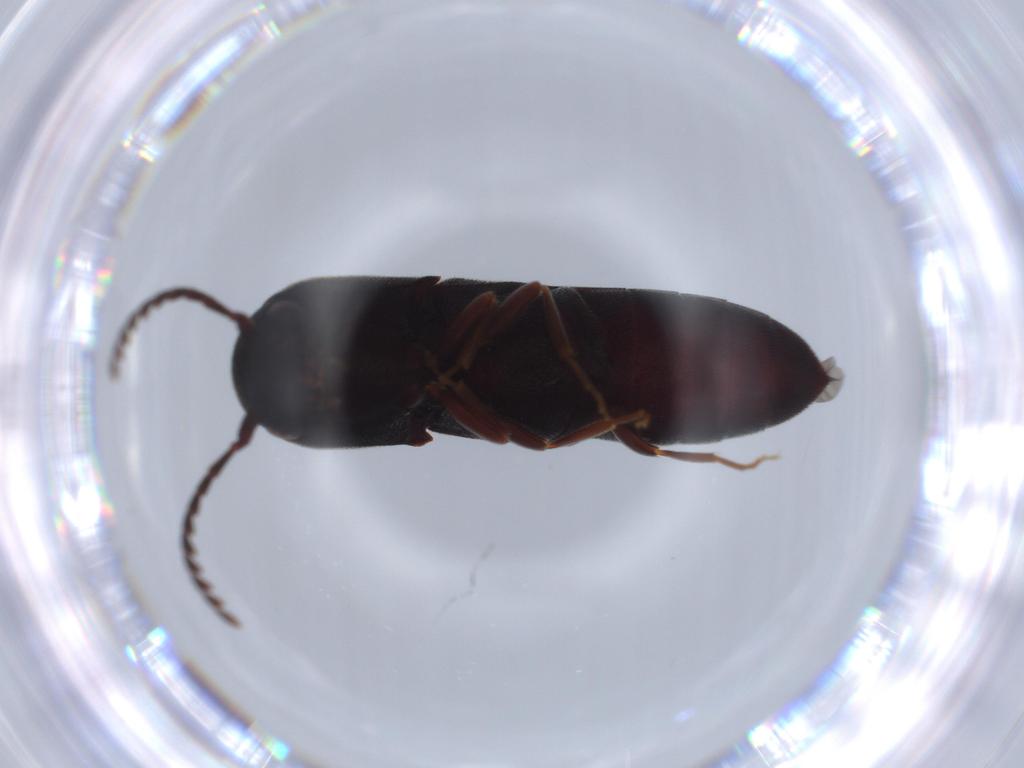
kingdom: Animalia
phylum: Arthropoda
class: Insecta
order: Coleoptera
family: Eucnemidae
